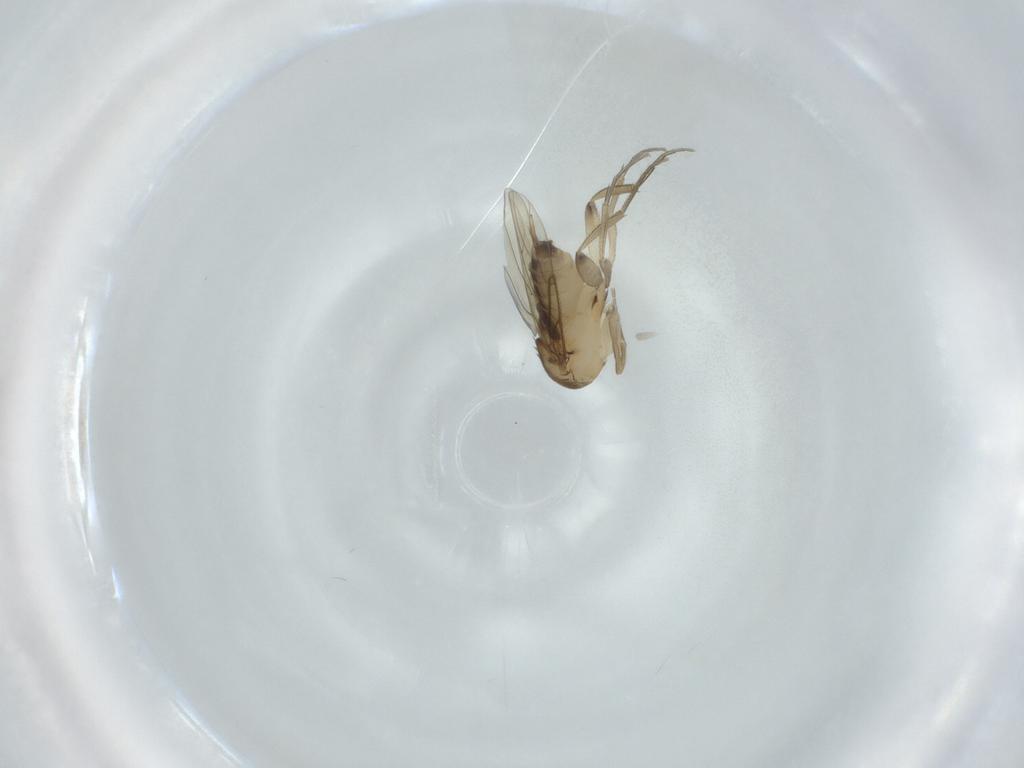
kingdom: Animalia
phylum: Arthropoda
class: Insecta
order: Diptera
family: Phoridae
